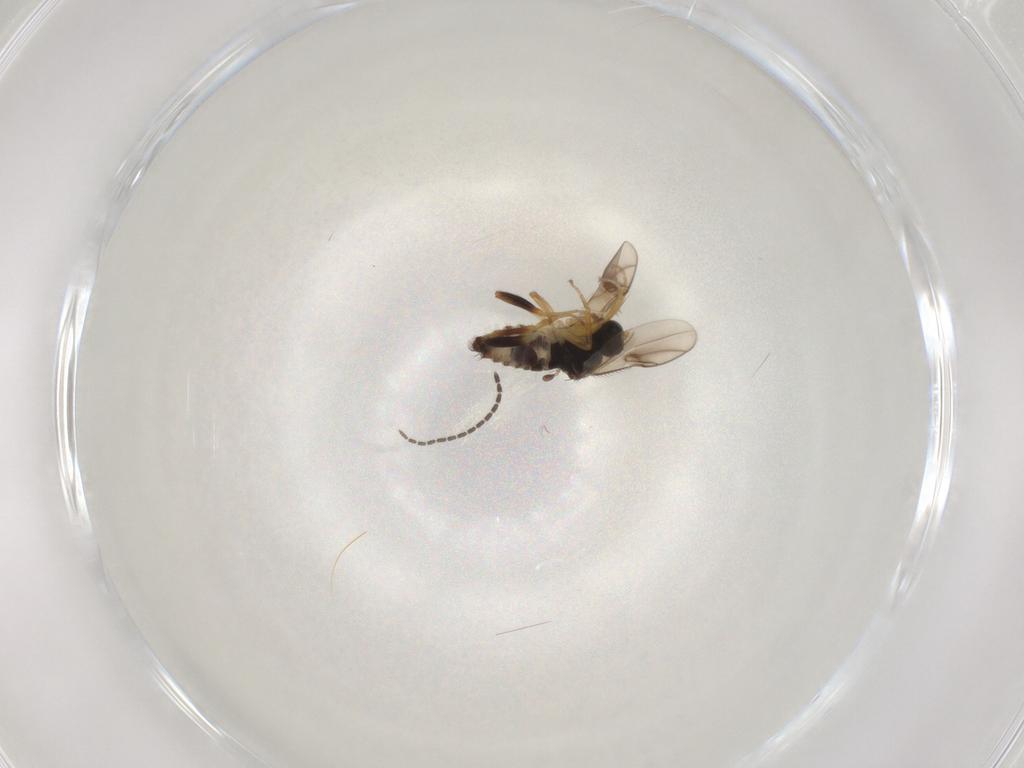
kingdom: Animalia
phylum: Arthropoda
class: Insecta
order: Diptera
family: Hybotidae
